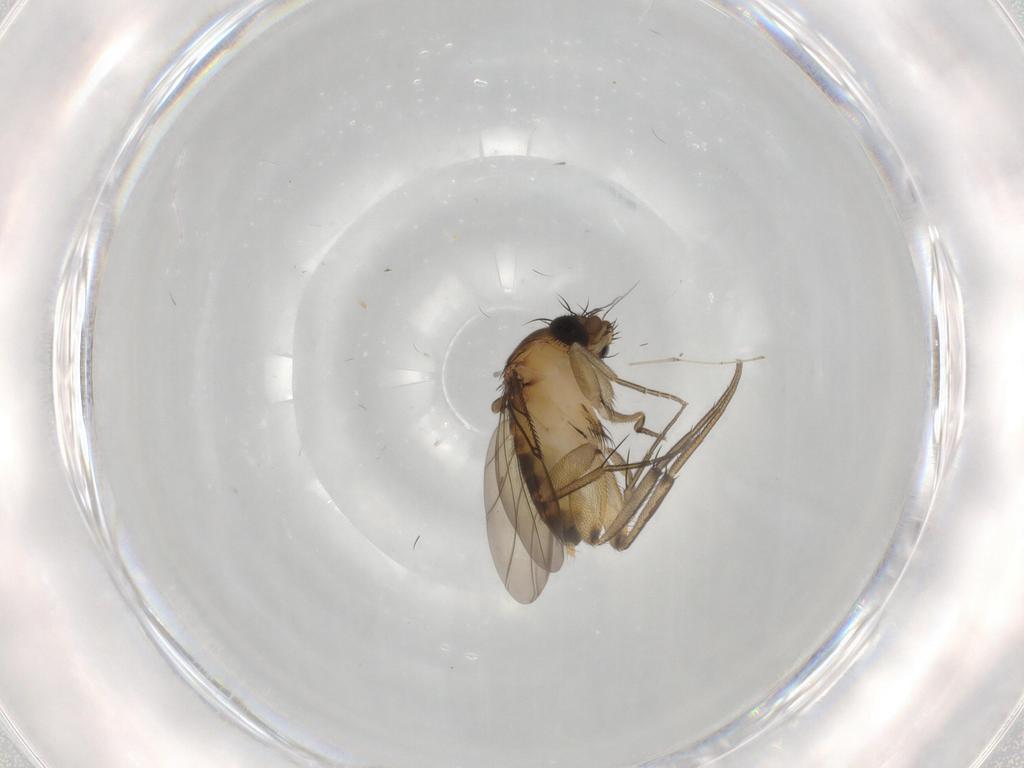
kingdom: Animalia
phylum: Arthropoda
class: Insecta
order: Diptera
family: Phoridae
